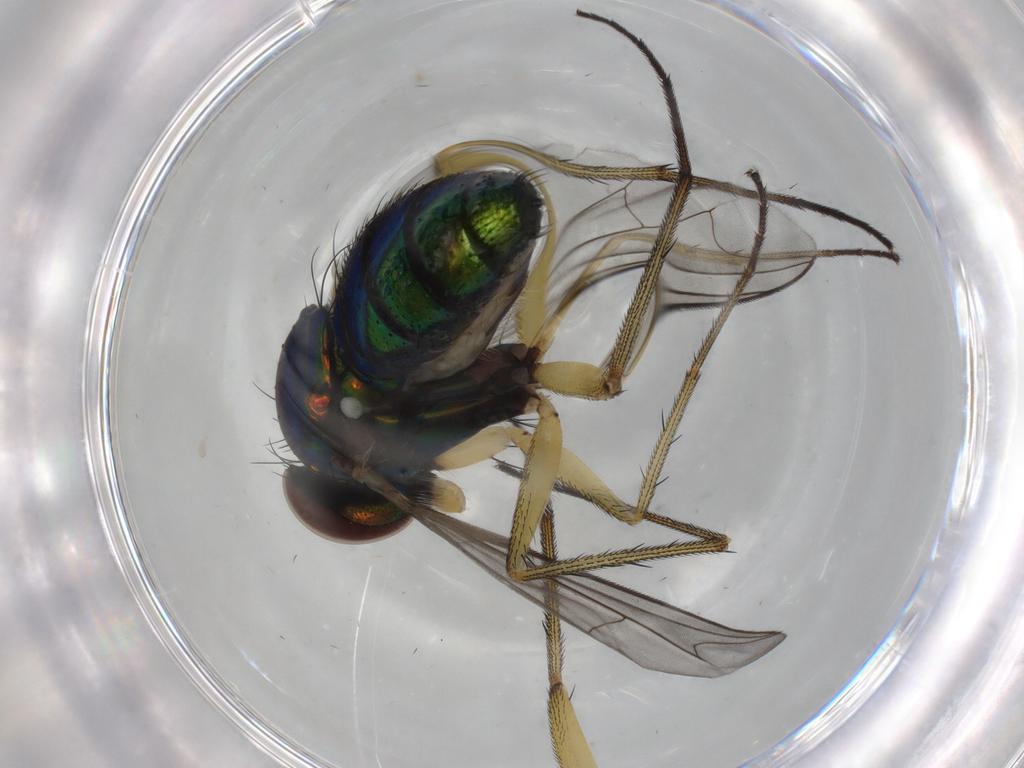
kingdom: Animalia
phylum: Arthropoda
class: Insecta
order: Diptera
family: Dolichopodidae
